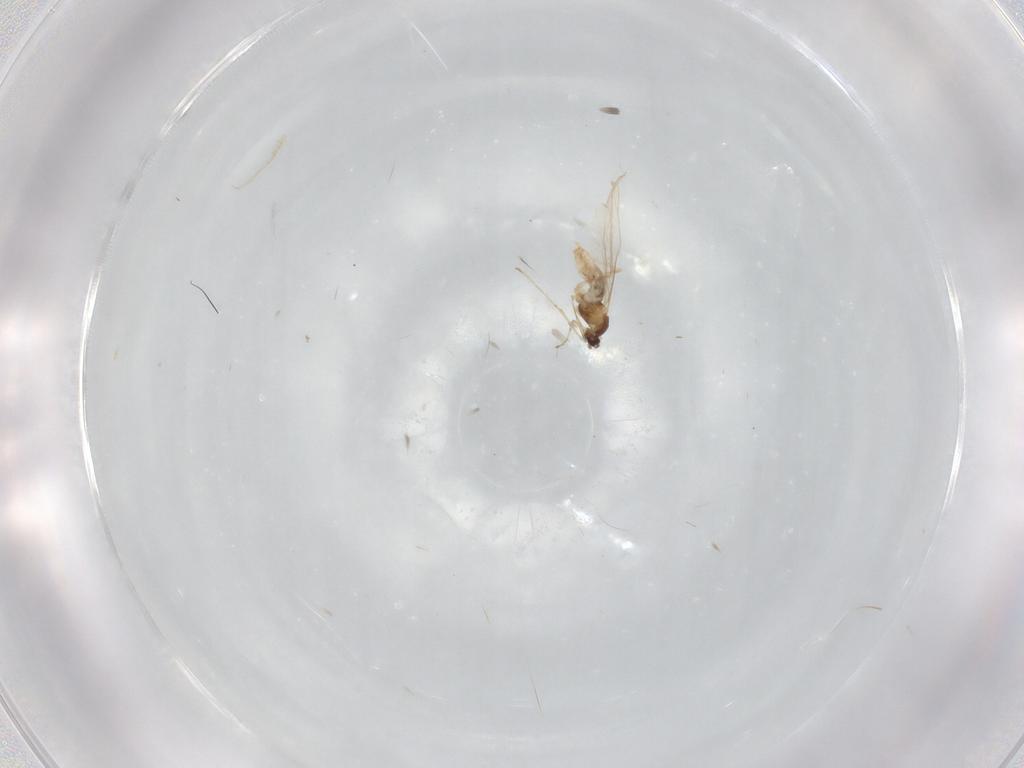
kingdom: Animalia
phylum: Arthropoda
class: Insecta
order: Diptera
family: Cecidomyiidae
